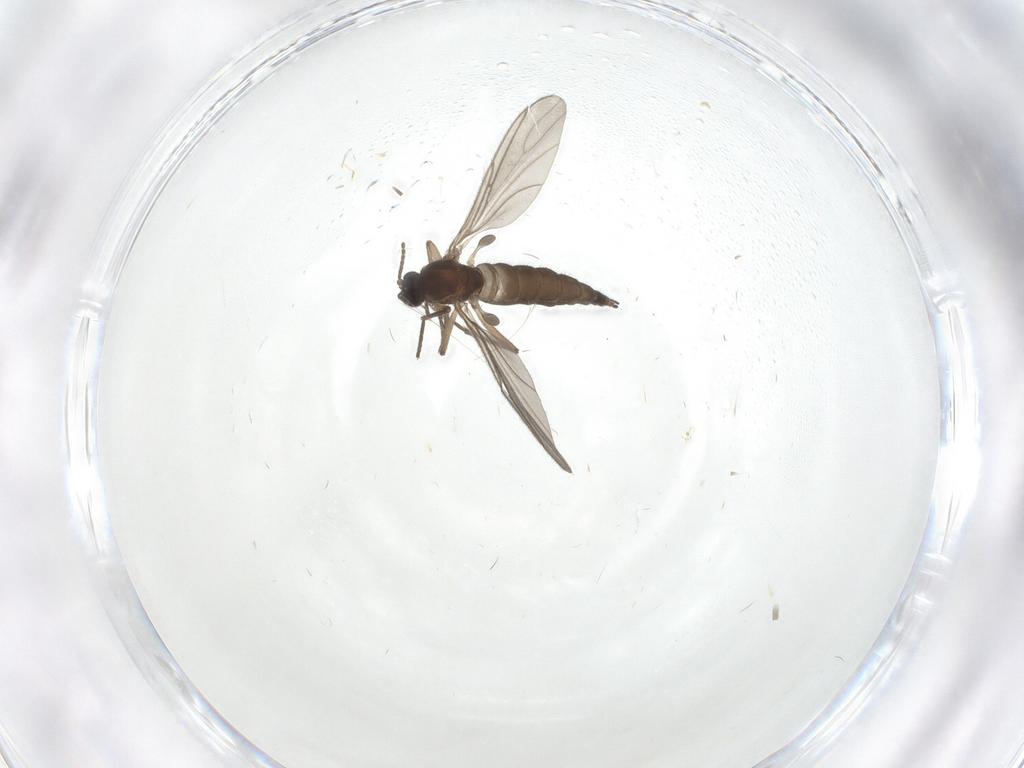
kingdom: Animalia
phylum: Arthropoda
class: Insecta
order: Diptera
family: Sciaridae
